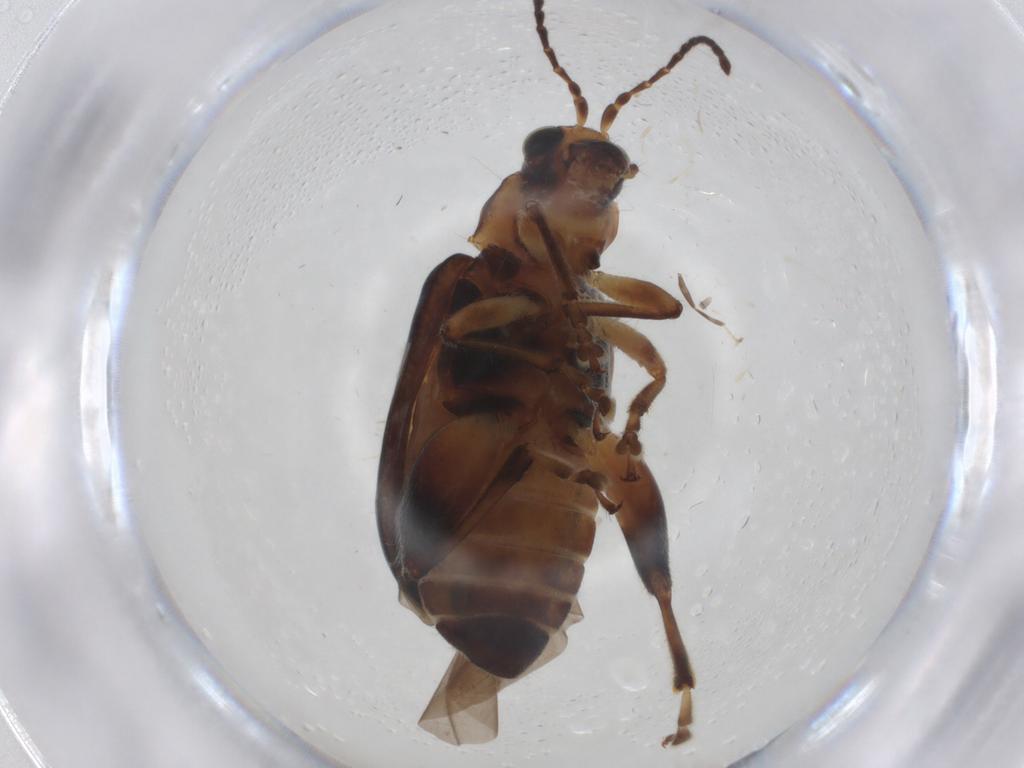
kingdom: Animalia
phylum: Arthropoda
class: Insecta
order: Coleoptera
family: Chrysomelidae
